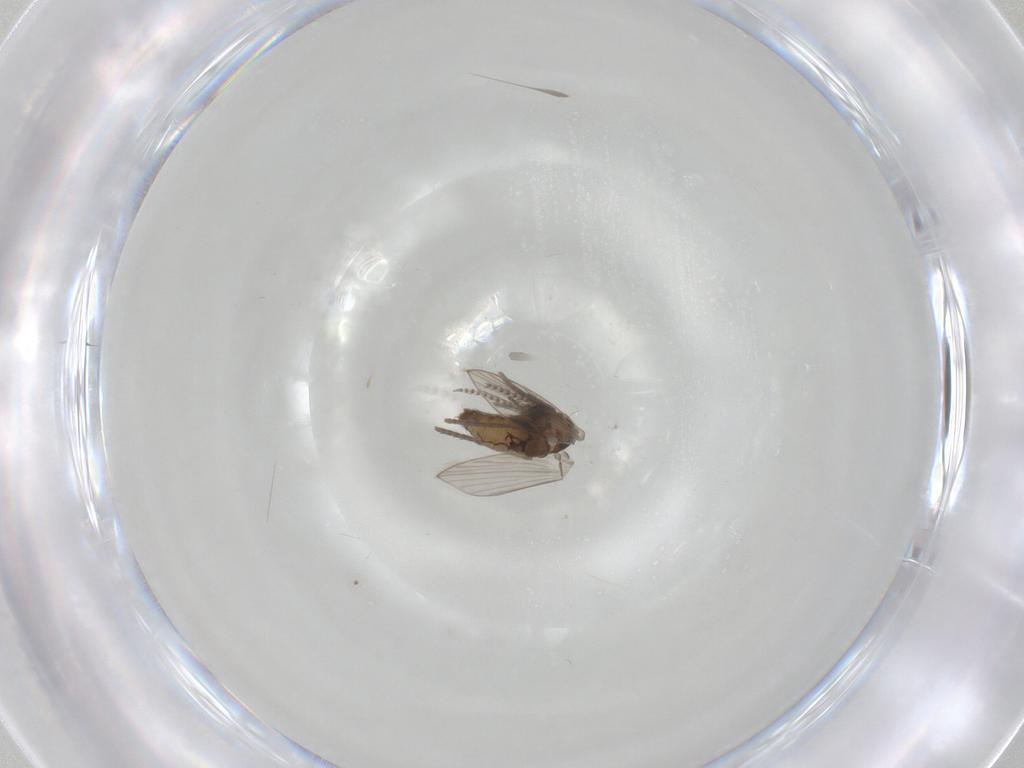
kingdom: Animalia
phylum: Arthropoda
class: Insecta
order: Diptera
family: Psychodidae
